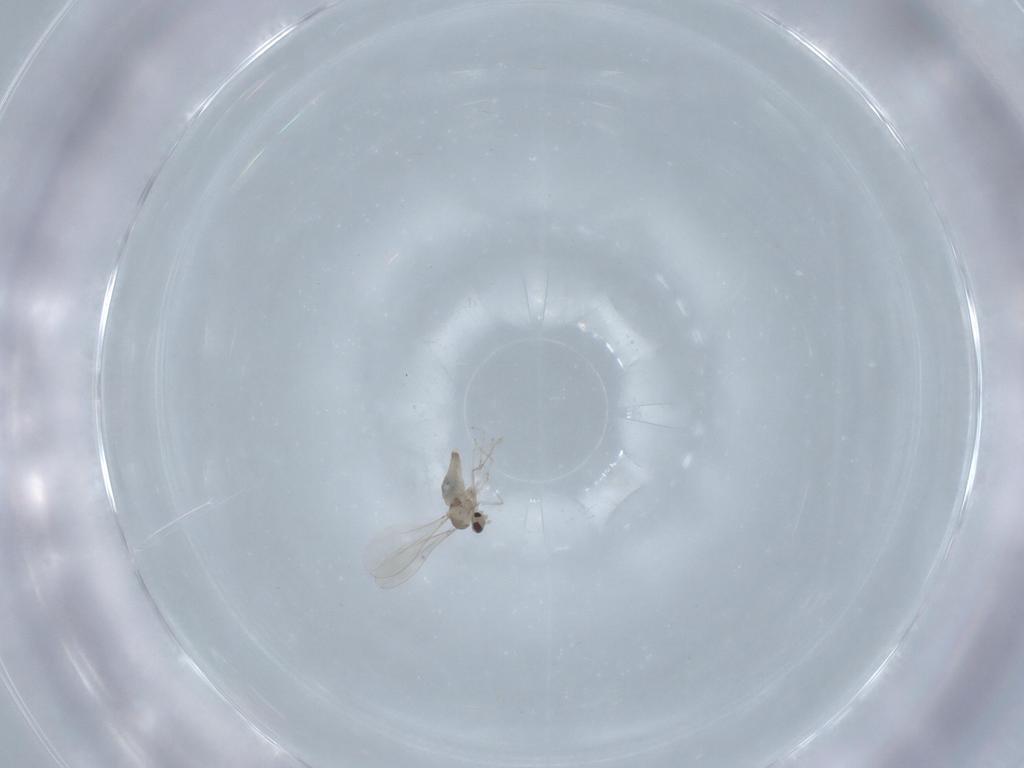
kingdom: Animalia
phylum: Arthropoda
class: Insecta
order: Diptera
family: Cecidomyiidae
